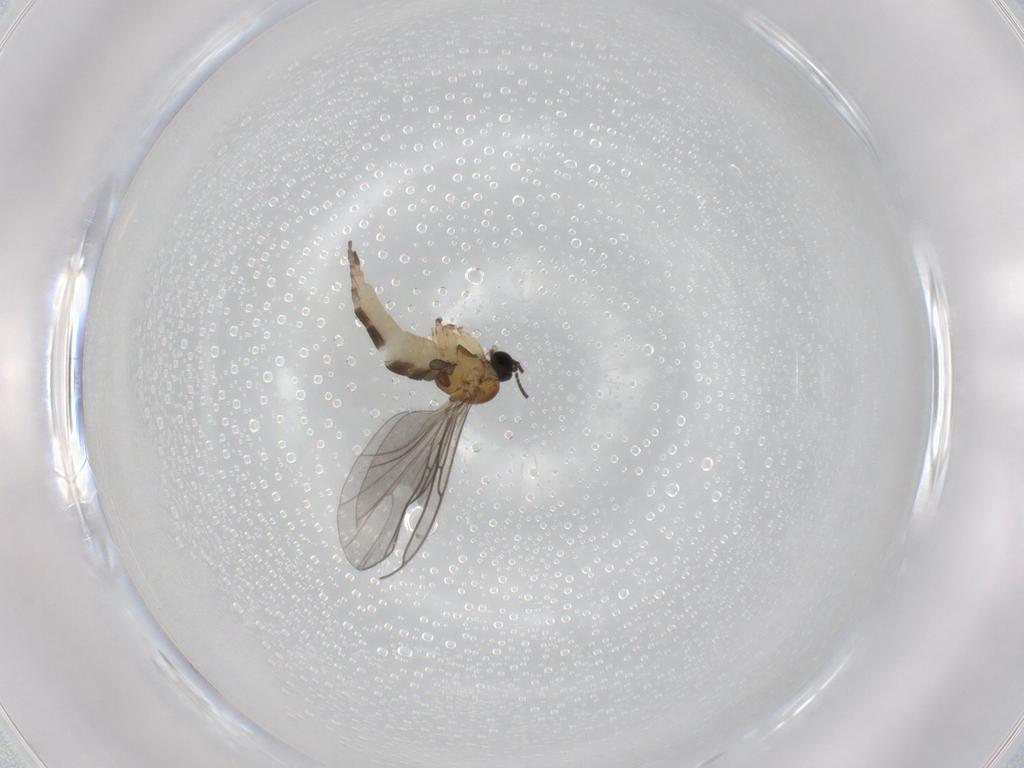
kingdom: Animalia
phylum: Arthropoda
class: Insecta
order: Diptera
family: Sciaridae
